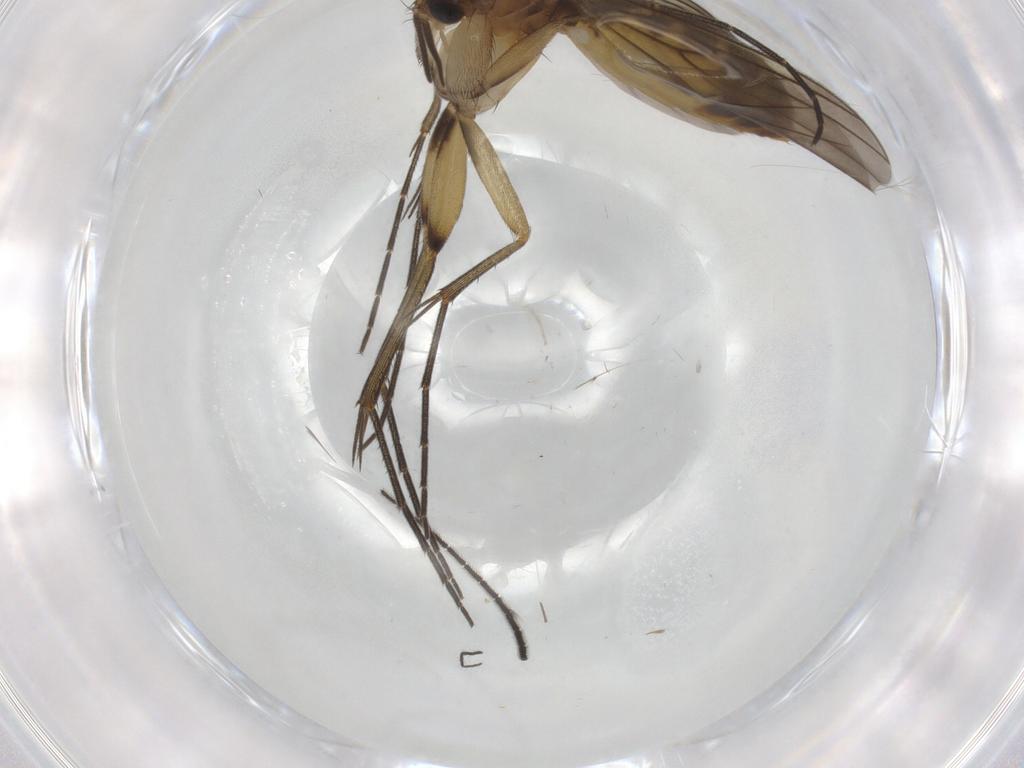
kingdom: Animalia
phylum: Arthropoda
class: Insecta
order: Diptera
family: Mycetophilidae
